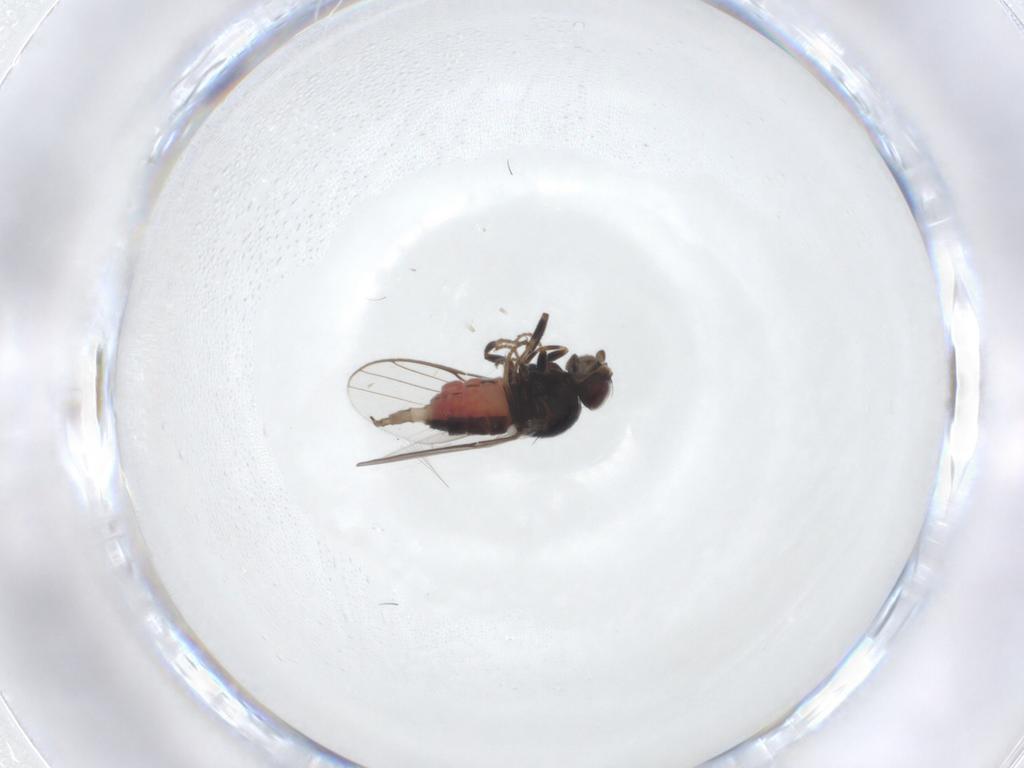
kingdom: Animalia
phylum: Arthropoda
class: Insecta
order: Diptera
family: Chloropidae
